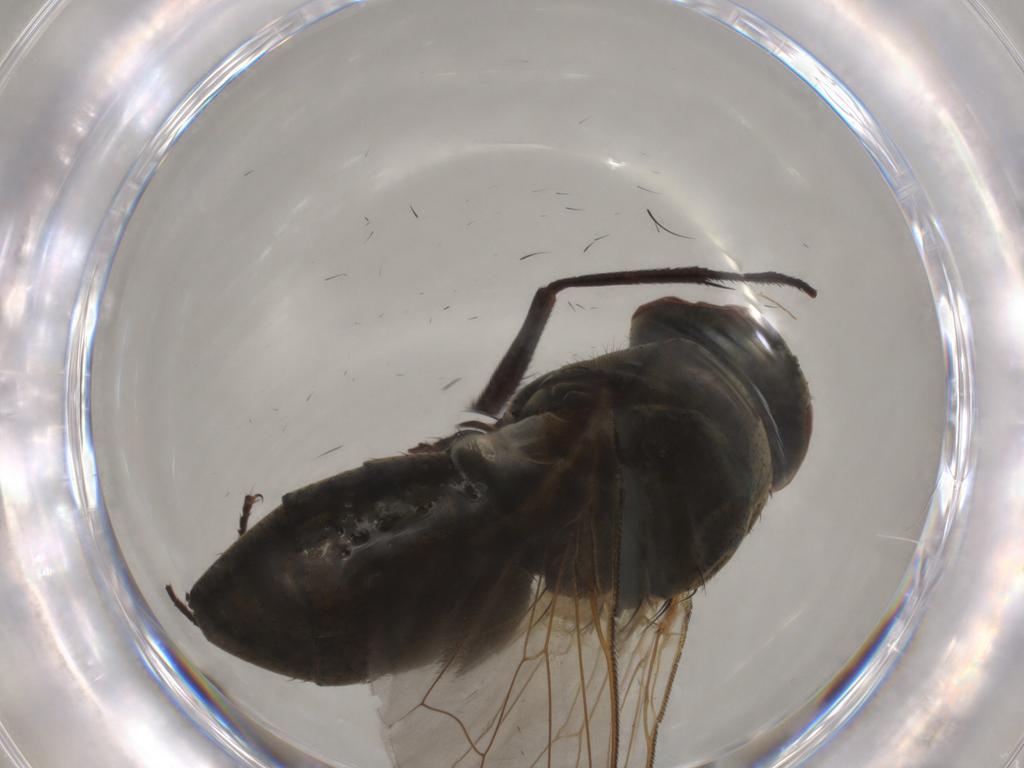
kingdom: Animalia
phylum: Arthropoda
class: Insecta
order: Diptera
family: Muscidae
